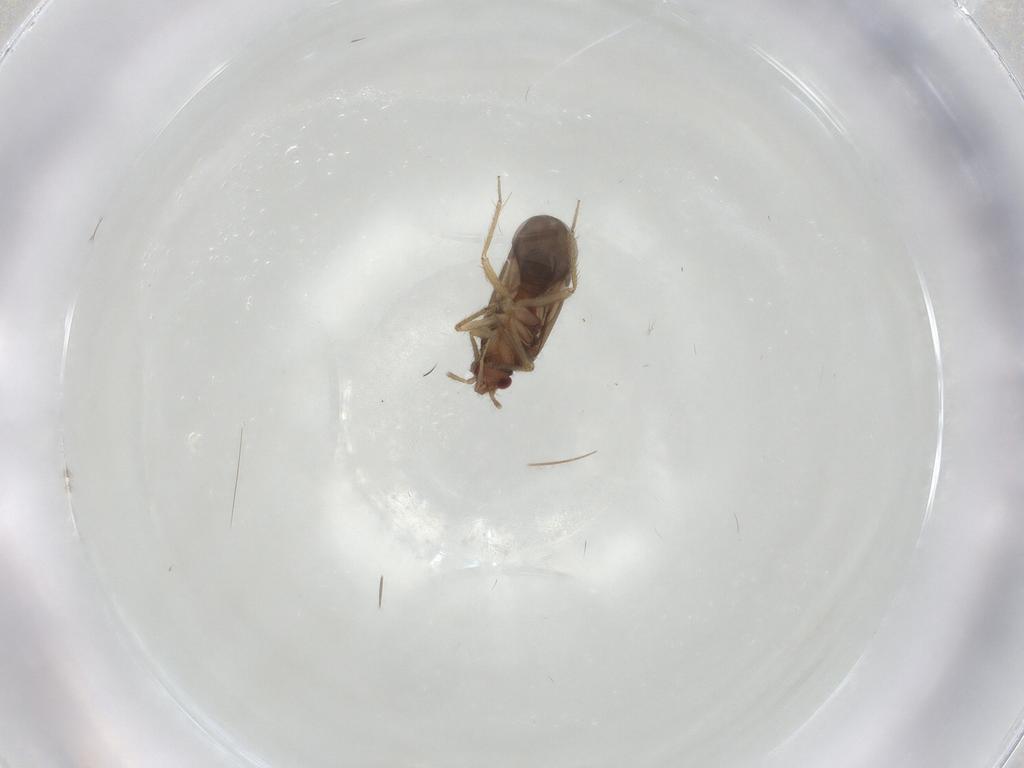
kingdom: Animalia
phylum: Arthropoda
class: Insecta
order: Hemiptera
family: Ceratocombidae
